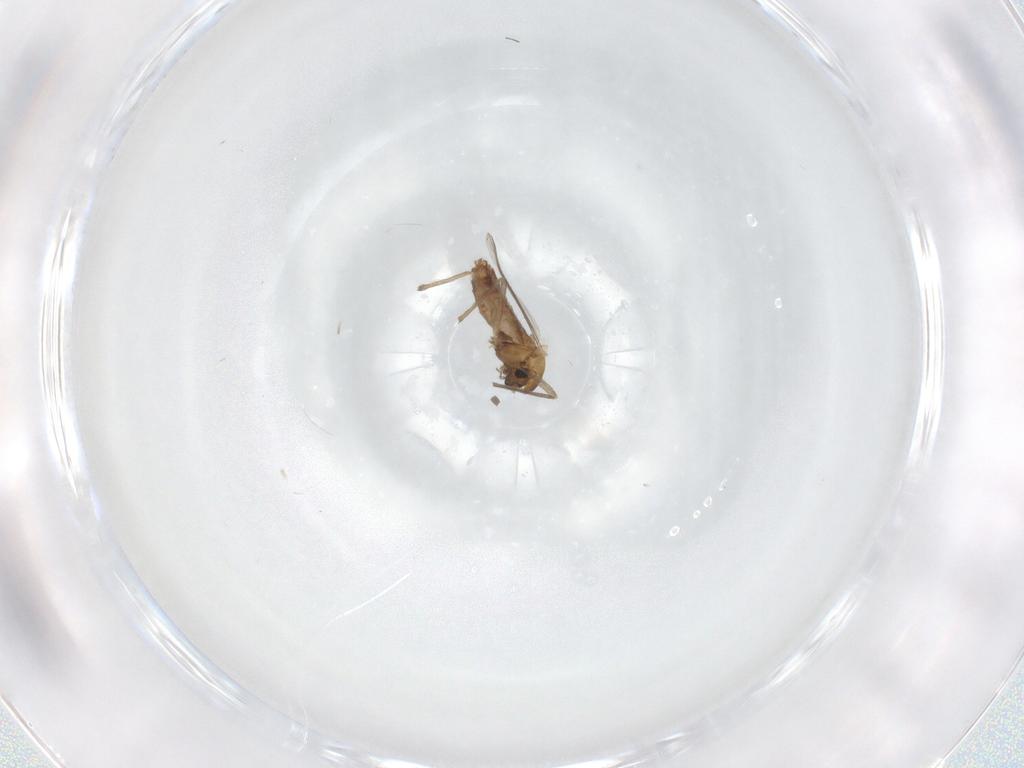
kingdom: Animalia
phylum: Arthropoda
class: Insecta
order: Diptera
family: Chironomidae
